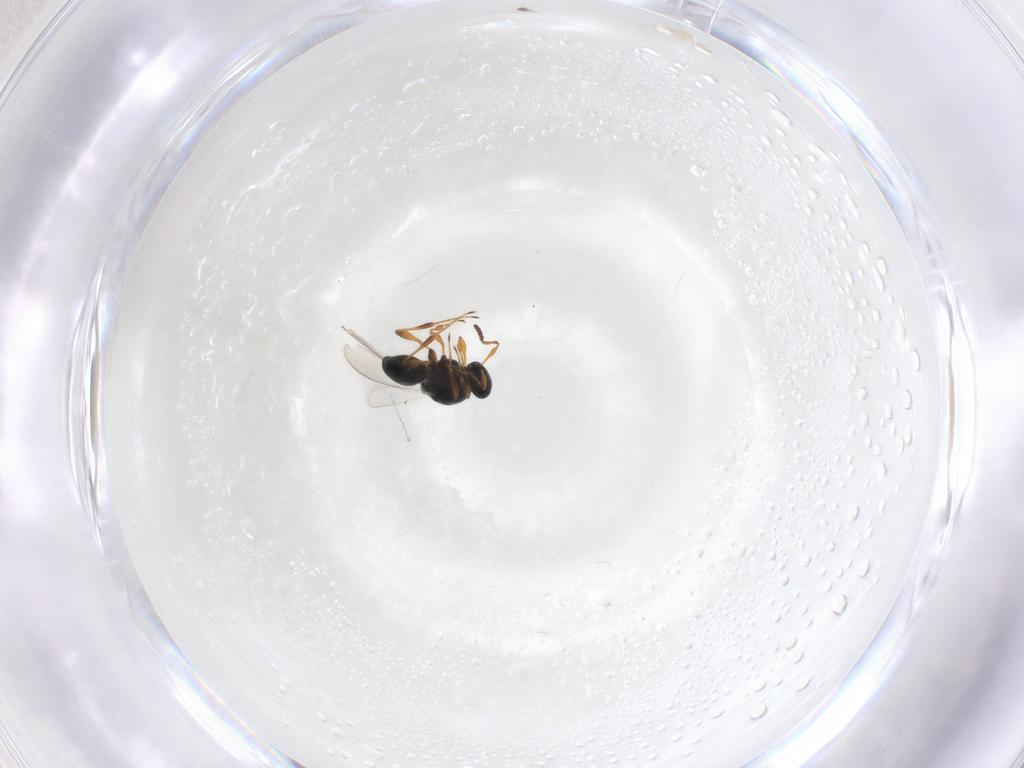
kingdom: Animalia
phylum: Arthropoda
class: Insecta
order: Hymenoptera
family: Platygastridae
